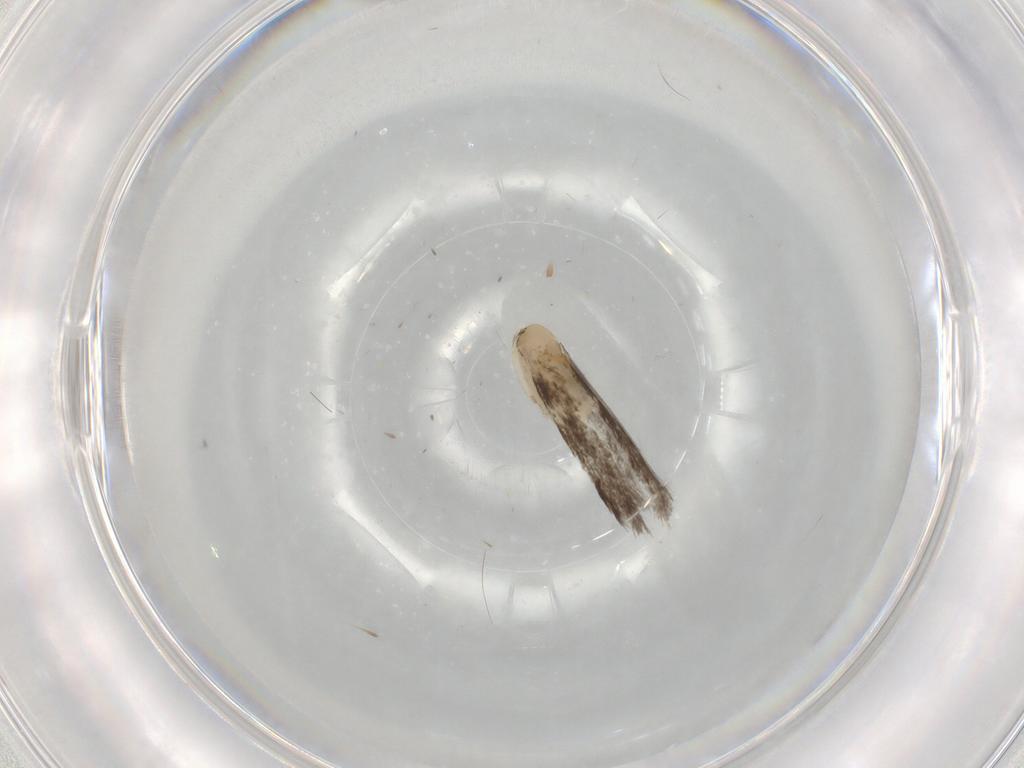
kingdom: Animalia
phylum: Arthropoda
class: Insecta
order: Lepidoptera
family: Gracillariidae
